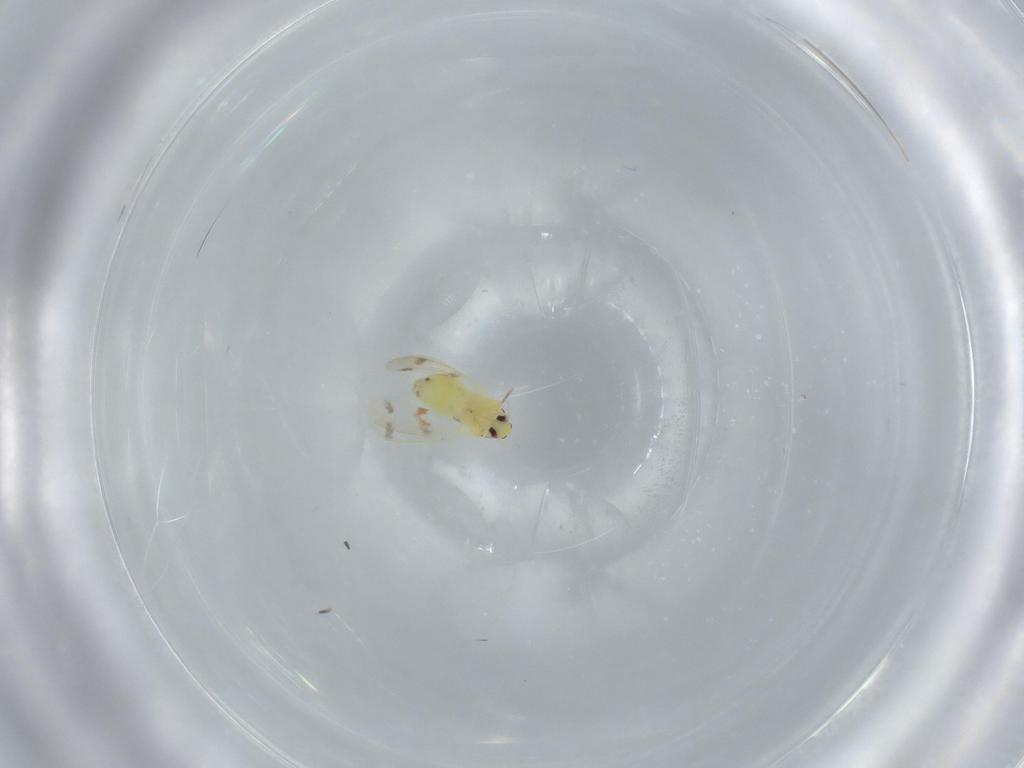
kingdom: Animalia
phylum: Arthropoda
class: Insecta
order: Hemiptera
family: Aleyrodidae
